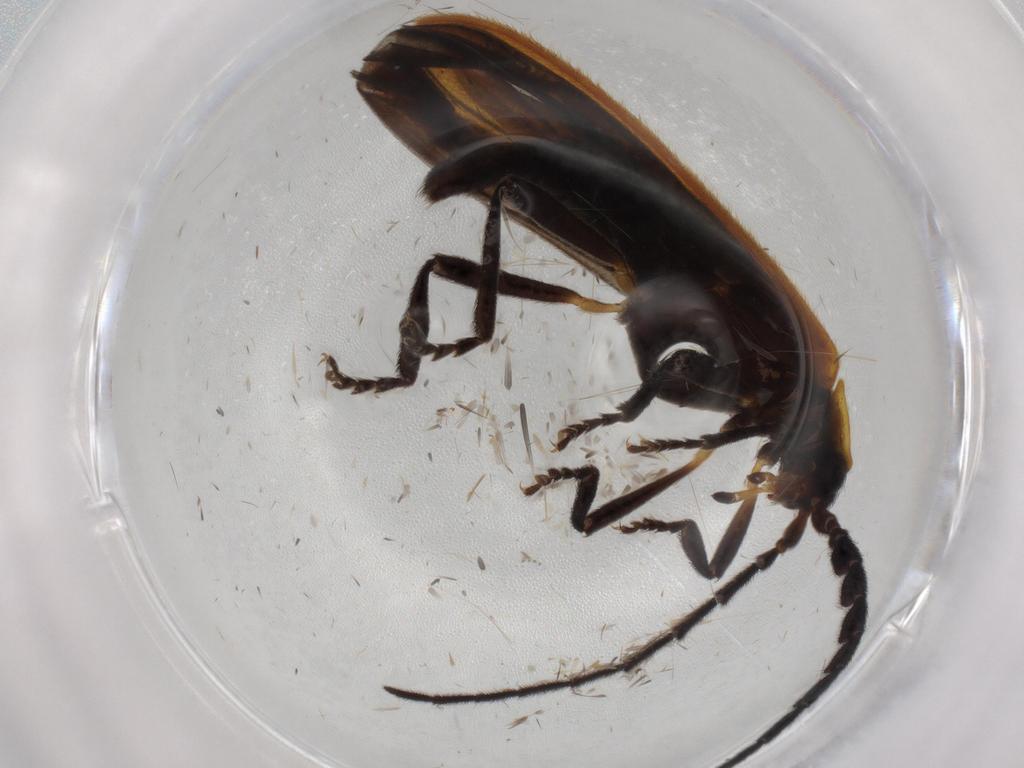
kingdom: Animalia
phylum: Arthropoda
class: Insecta
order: Coleoptera
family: Lycidae
